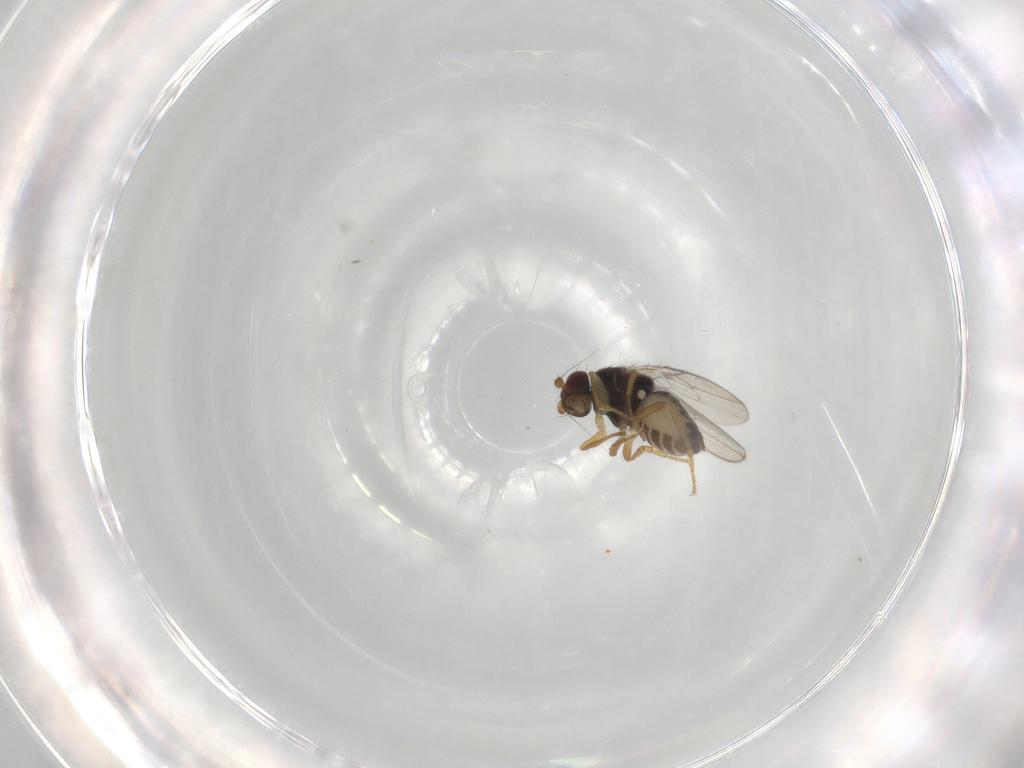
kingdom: Animalia
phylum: Arthropoda
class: Insecta
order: Diptera
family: Sphaeroceridae
